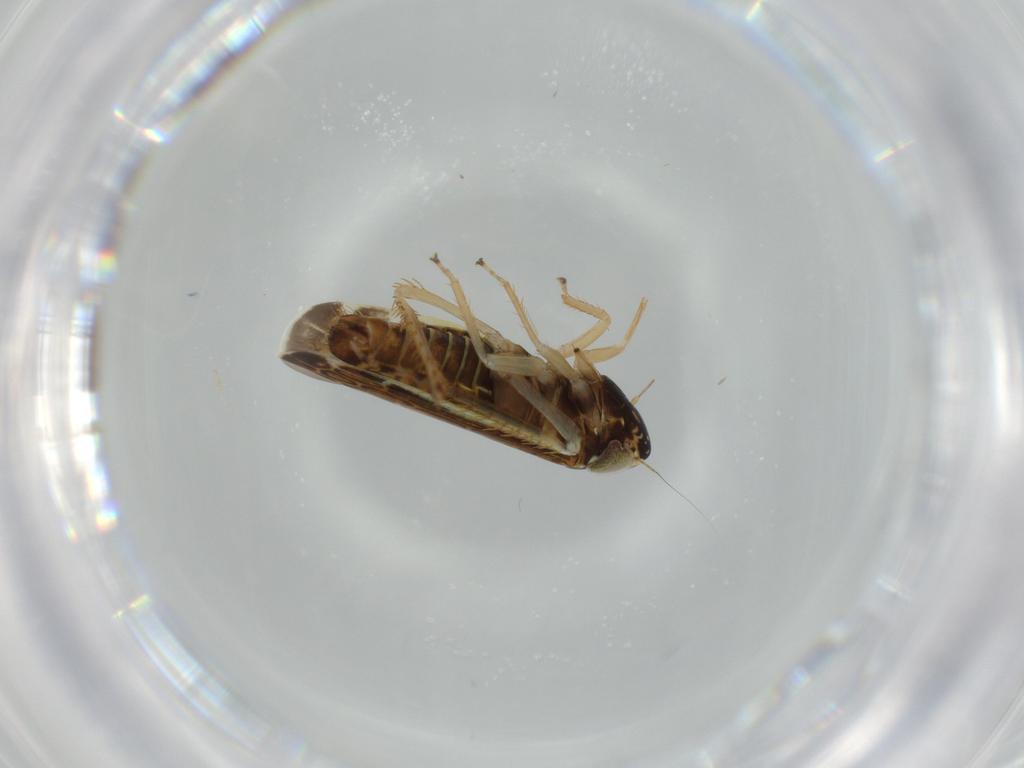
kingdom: Animalia
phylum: Arthropoda
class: Insecta
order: Hemiptera
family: Cicadellidae
